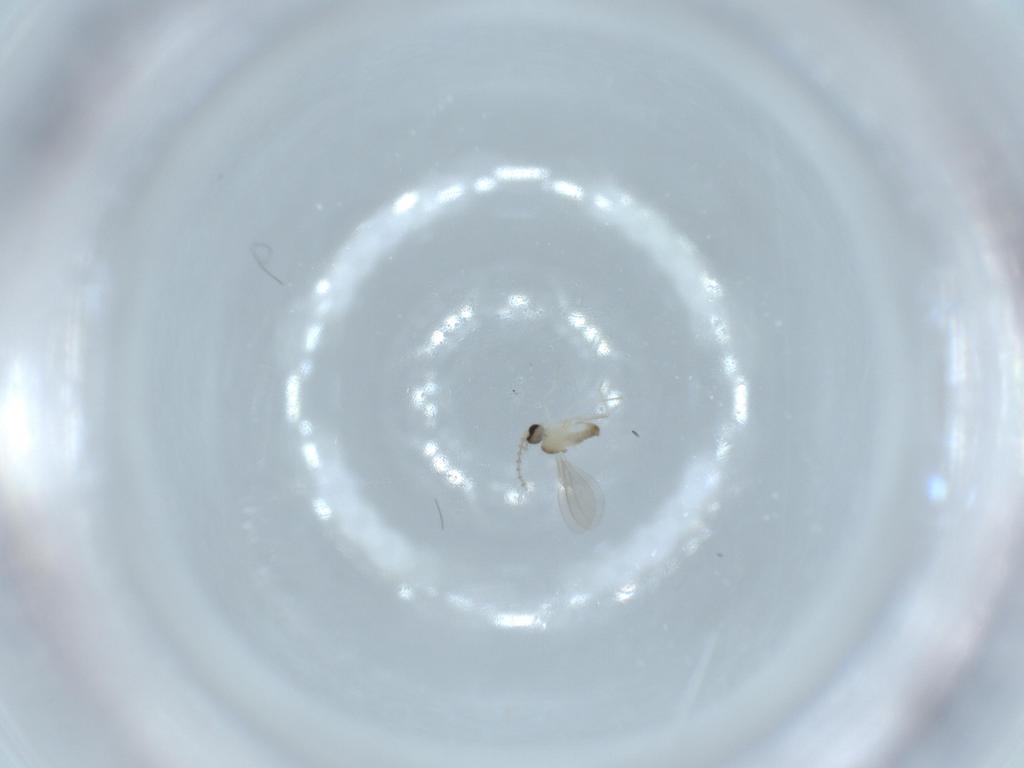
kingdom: Animalia
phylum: Arthropoda
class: Insecta
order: Diptera
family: Cecidomyiidae
